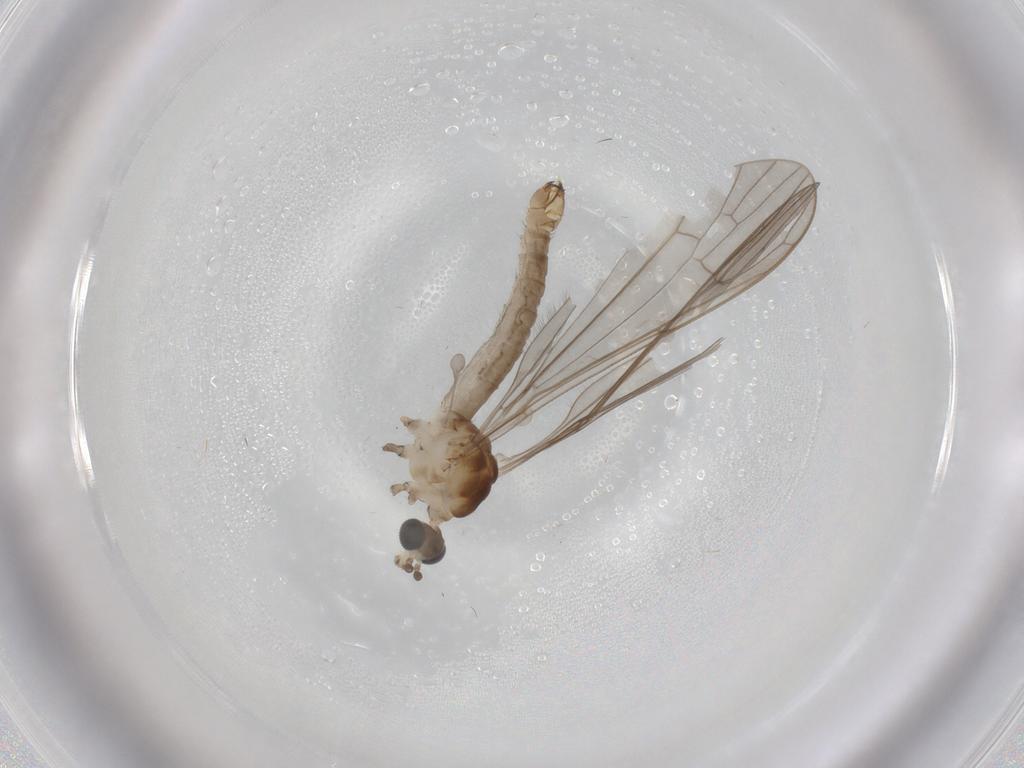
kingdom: Animalia
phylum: Arthropoda
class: Insecta
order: Diptera
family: Limoniidae
